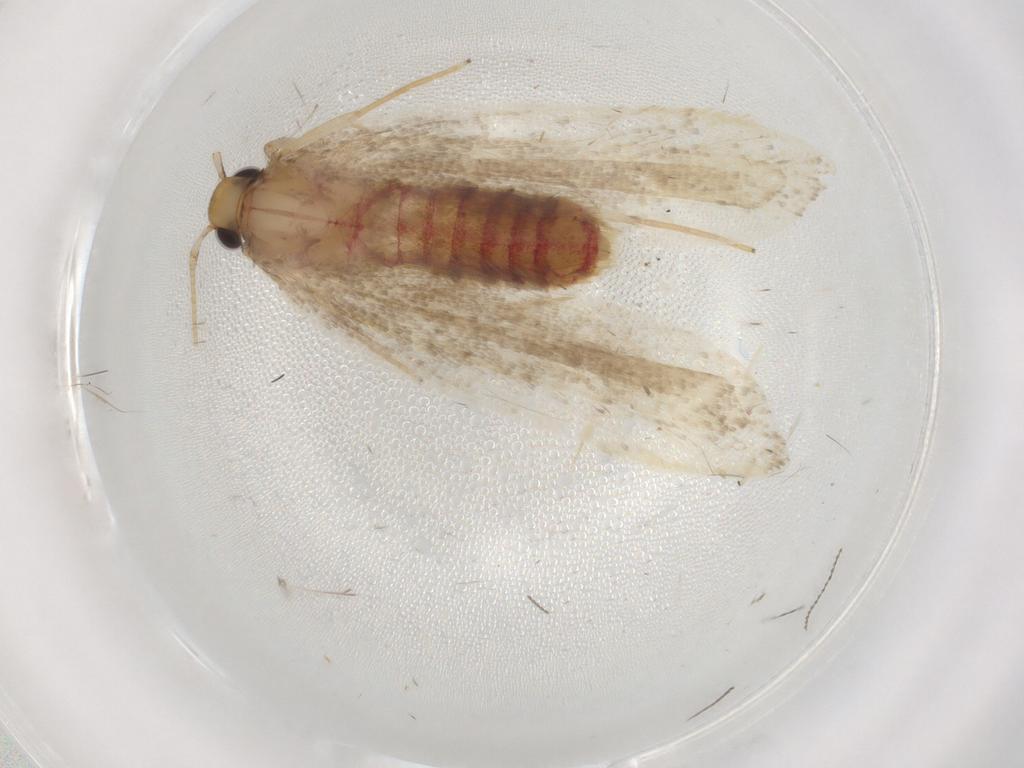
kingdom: Animalia
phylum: Arthropoda
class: Insecta
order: Lepidoptera
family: Lecithoceridae
